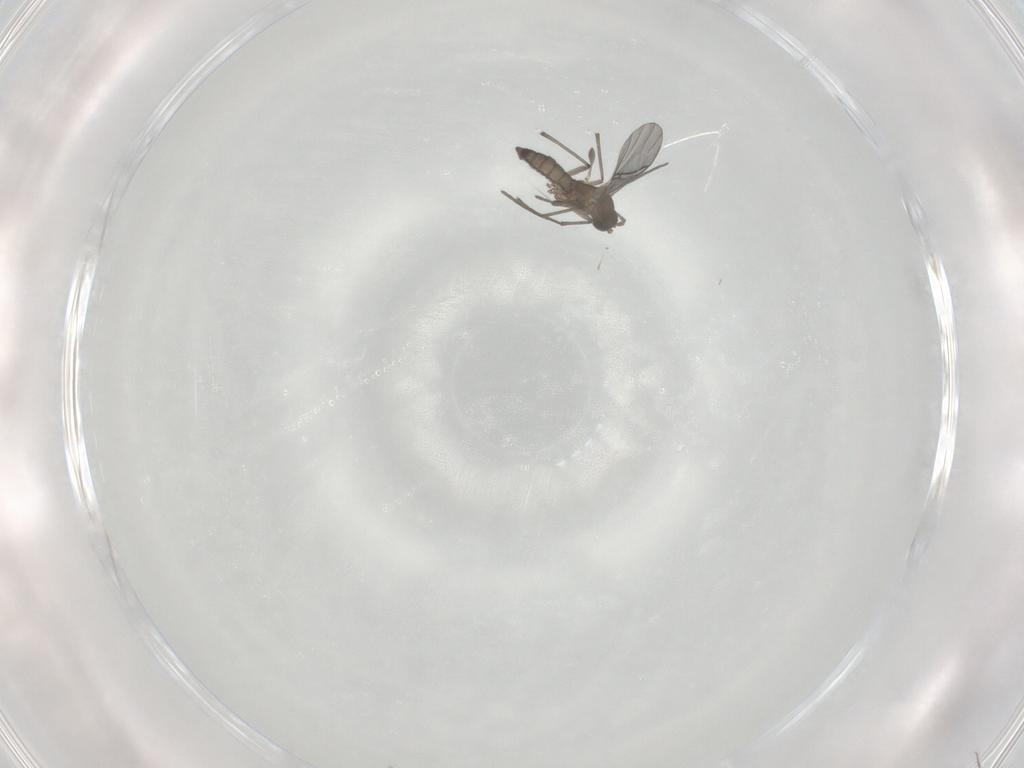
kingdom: Animalia
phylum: Arthropoda
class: Insecta
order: Diptera
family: Sciaridae
